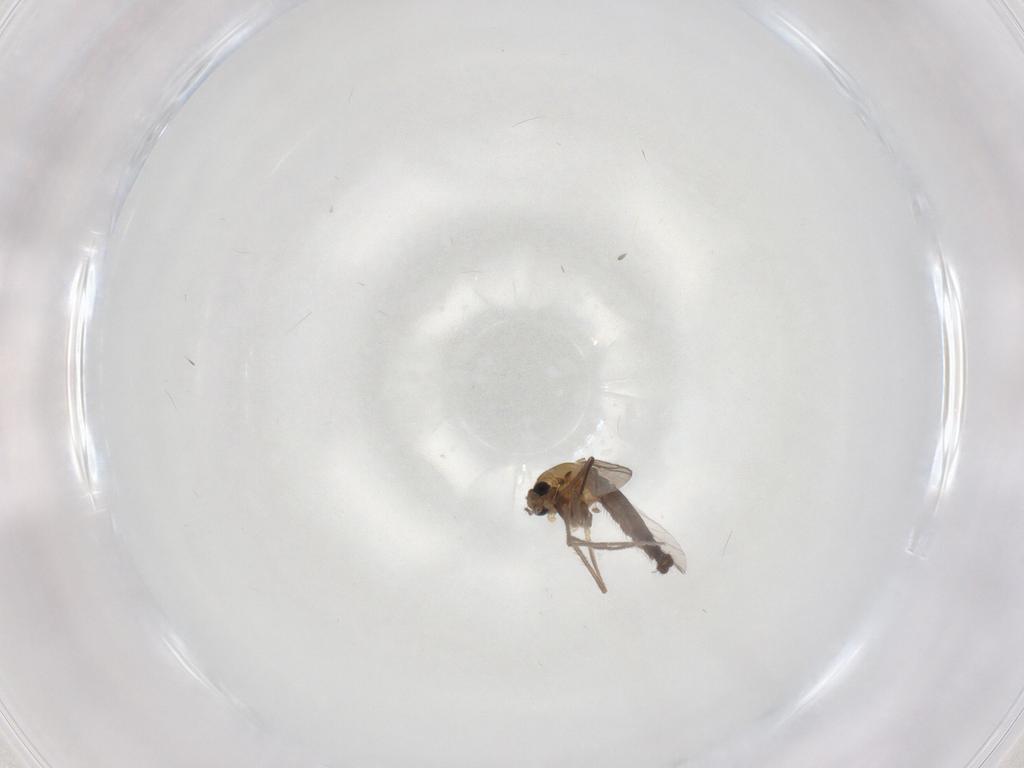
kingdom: Animalia
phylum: Arthropoda
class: Insecta
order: Diptera
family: Chironomidae
